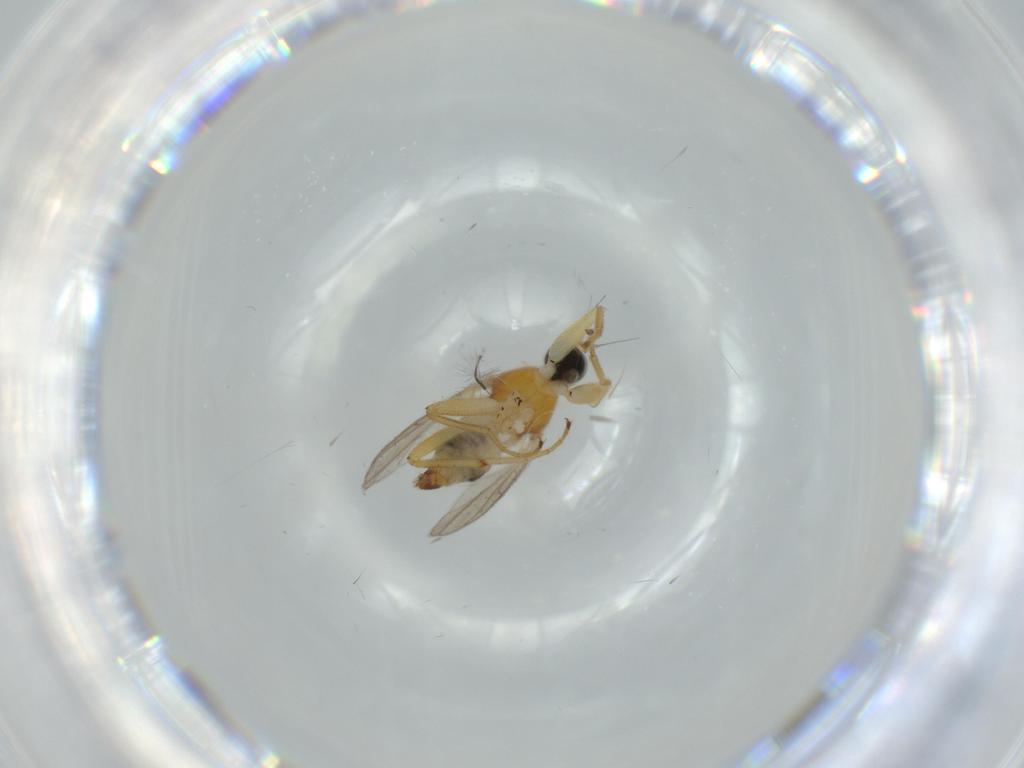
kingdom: Animalia
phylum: Arthropoda
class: Insecta
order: Diptera
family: Hybotidae
